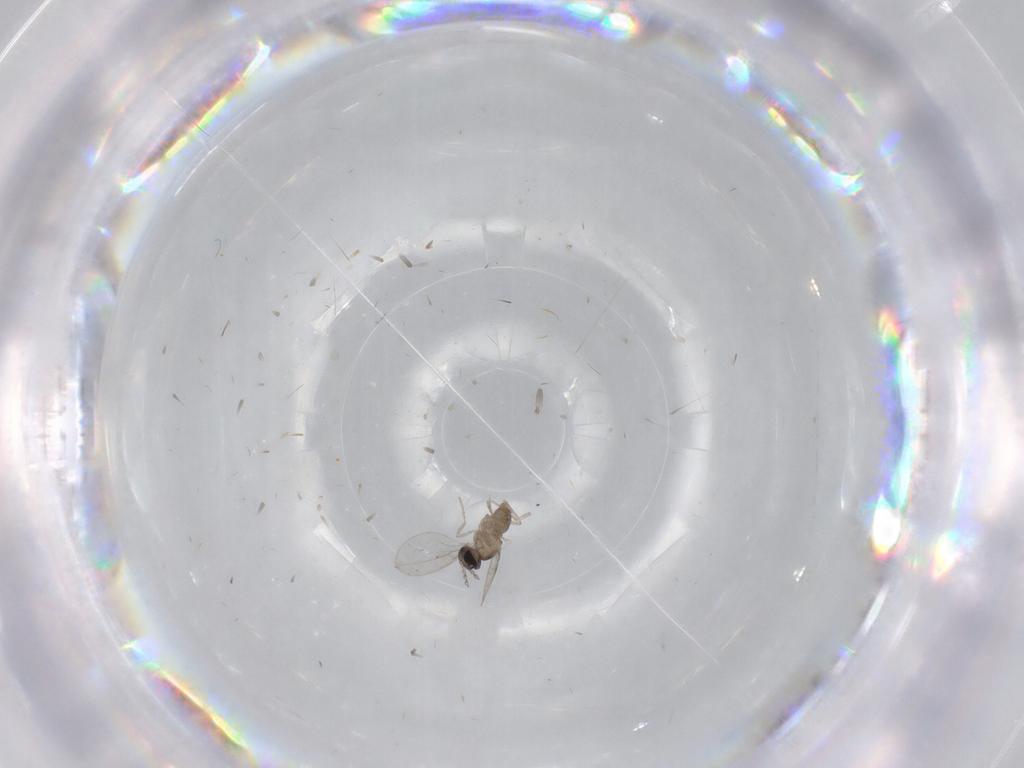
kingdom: Animalia
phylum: Arthropoda
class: Insecta
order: Diptera
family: Cecidomyiidae
